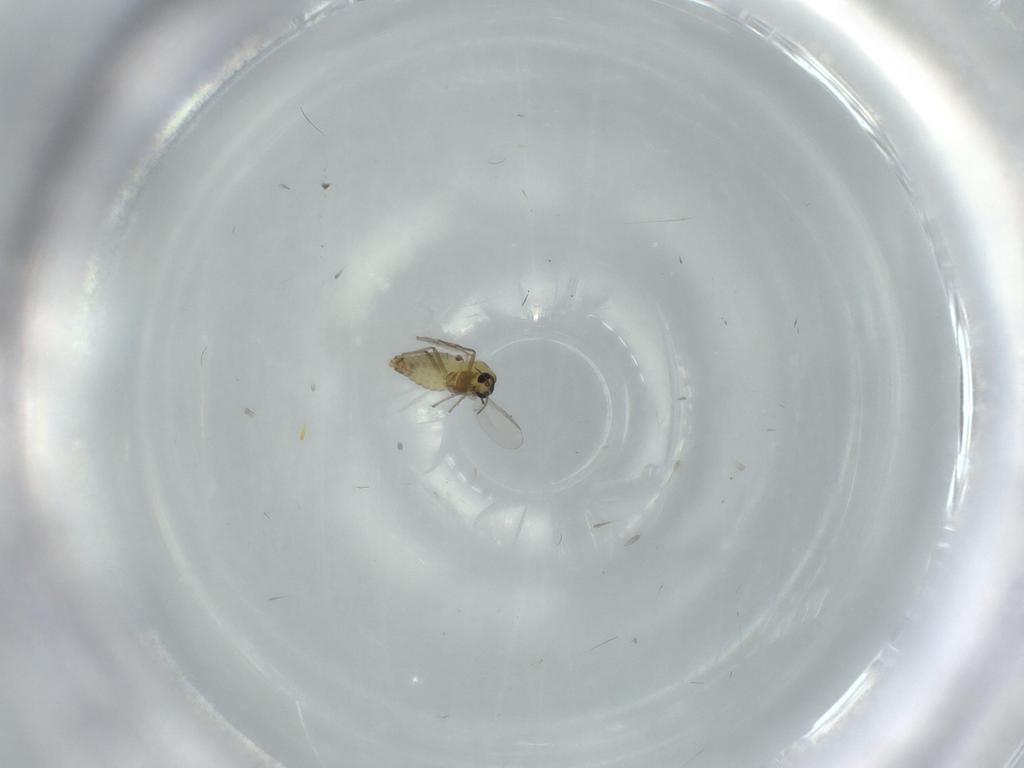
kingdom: Animalia
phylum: Arthropoda
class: Insecta
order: Diptera
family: Chironomidae
